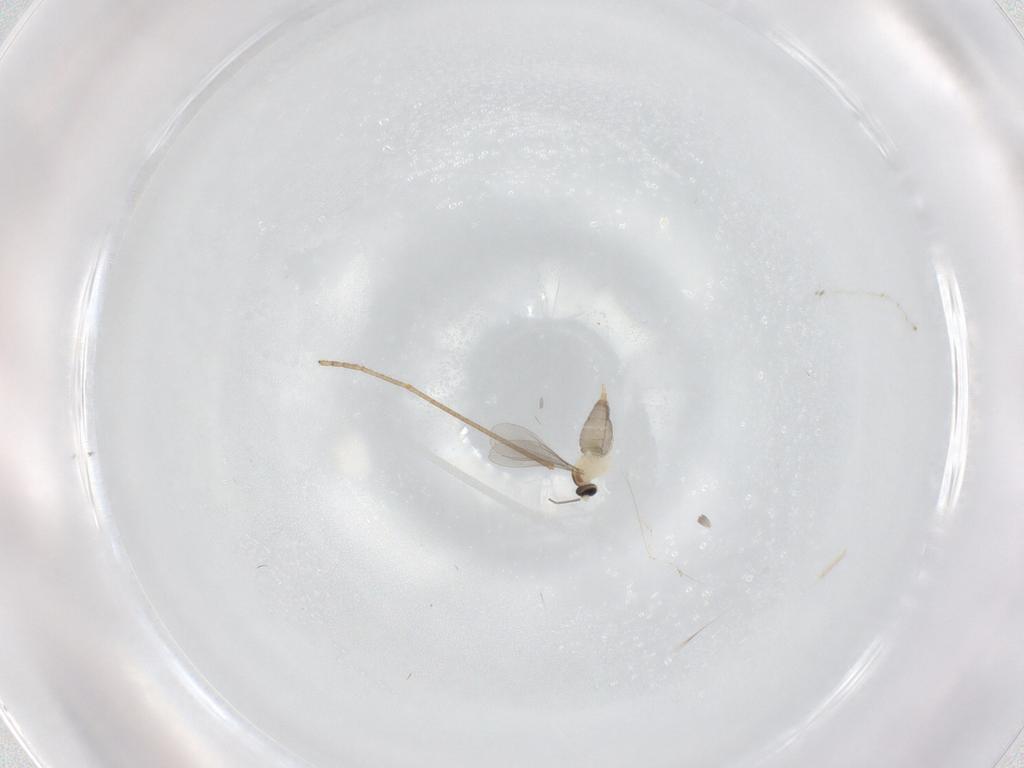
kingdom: Animalia
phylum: Arthropoda
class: Insecta
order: Diptera
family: Limoniidae
